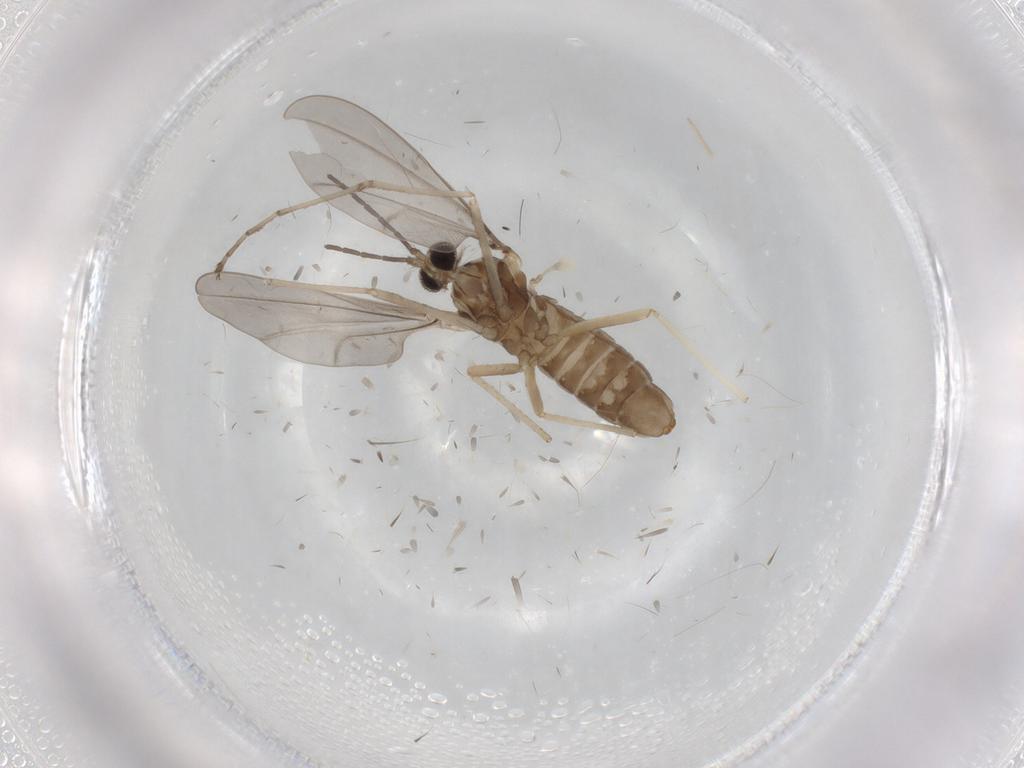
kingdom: Animalia
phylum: Arthropoda
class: Insecta
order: Diptera
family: Cecidomyiidae
